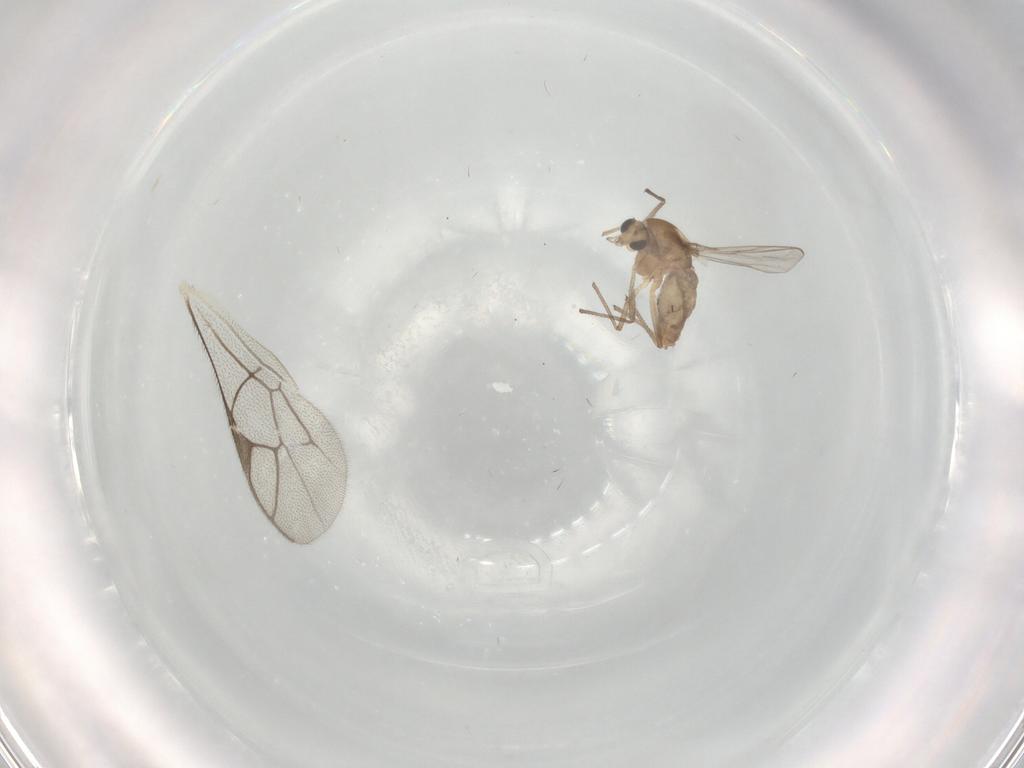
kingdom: Animalia
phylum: Arthropoda
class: Insecta
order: Diptera
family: Chironomidae
